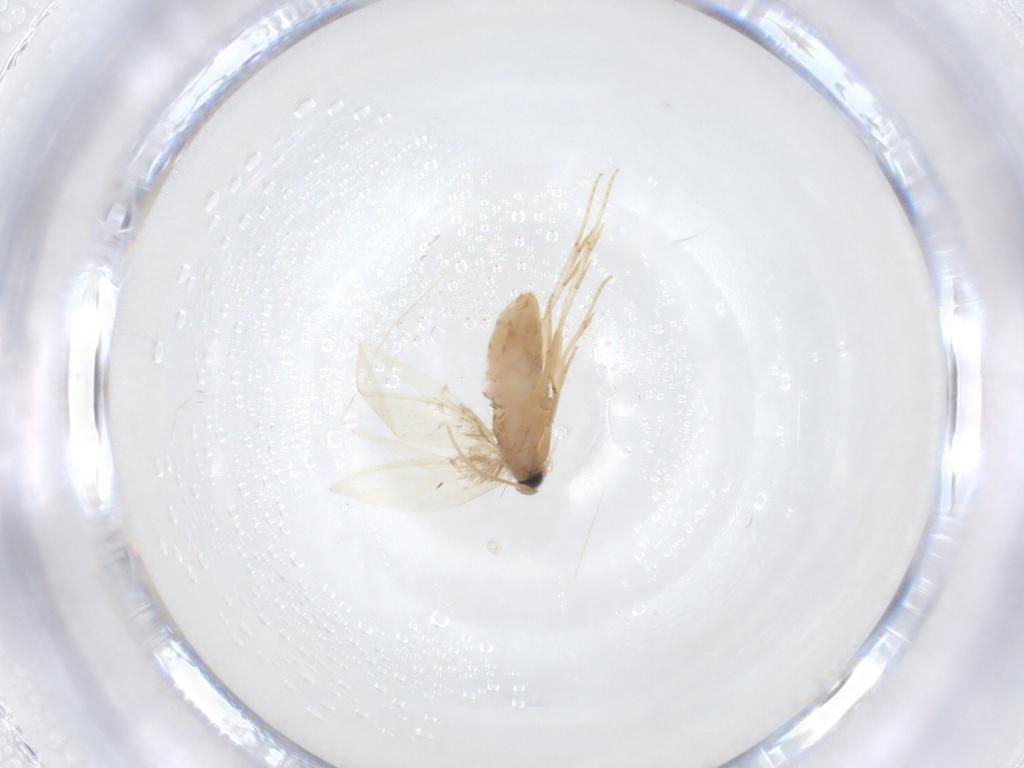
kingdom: Animalia
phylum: Arthropoda
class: Insecta
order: Lepidoptera
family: Nepticulidae
